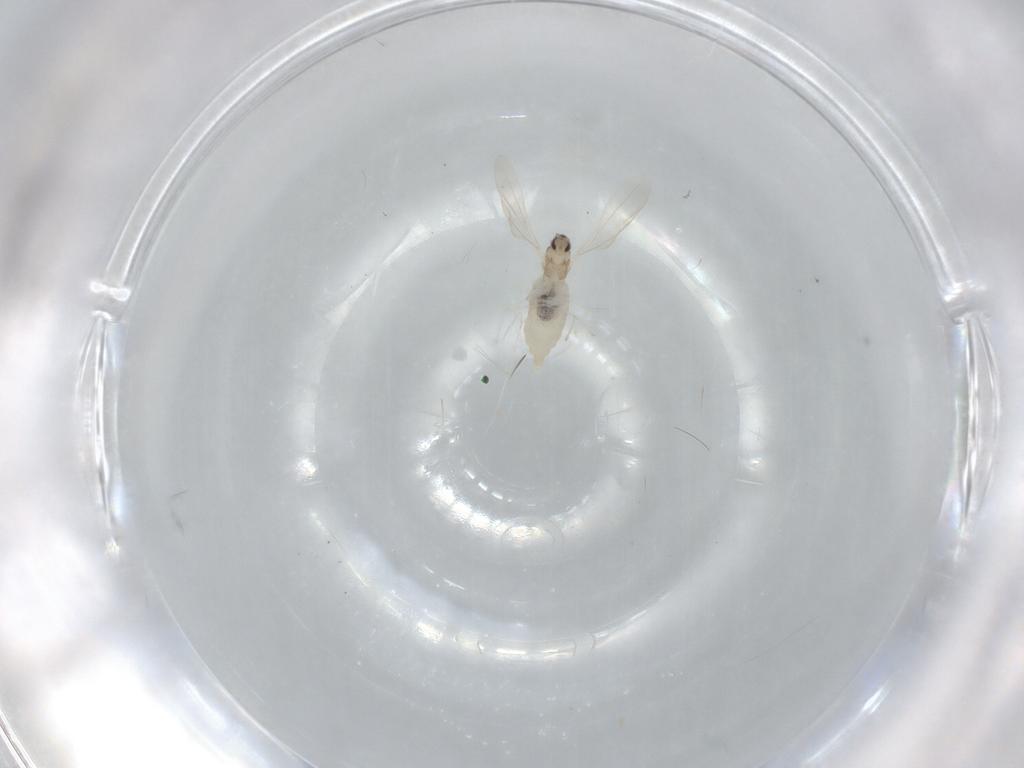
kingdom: Animalia
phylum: Arthropoda
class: Insecta
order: Diptera
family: Chironomidae
